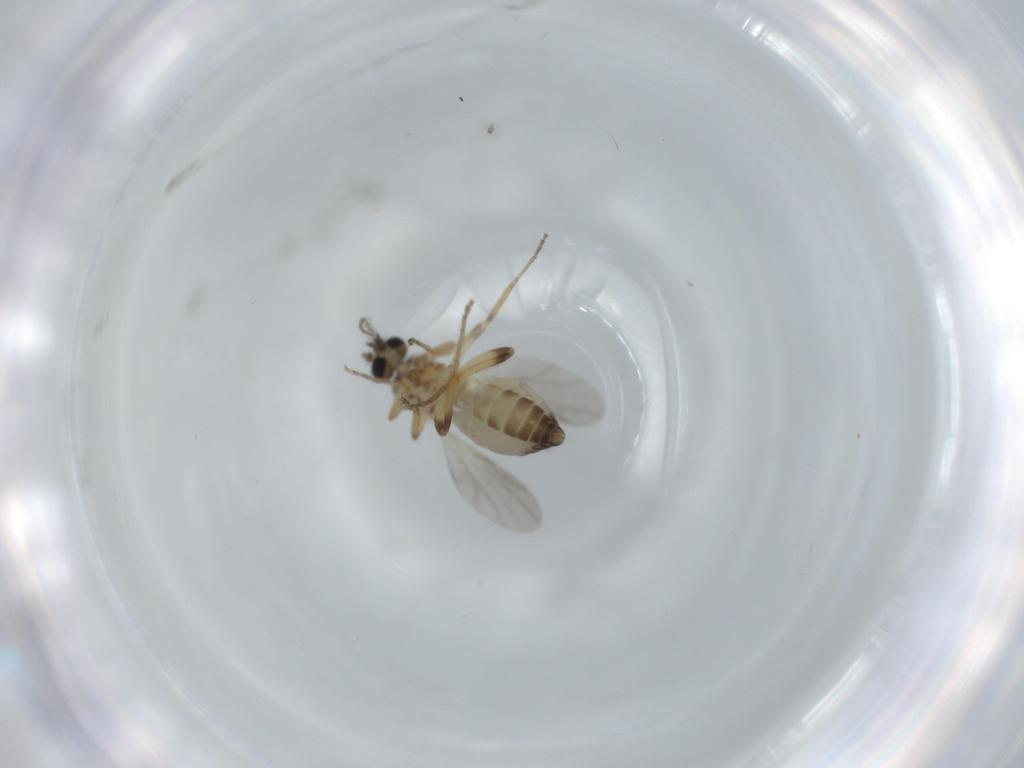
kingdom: Animalia
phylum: Arthropoda
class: Insecta
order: Diptera
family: Ceratopogonidae
